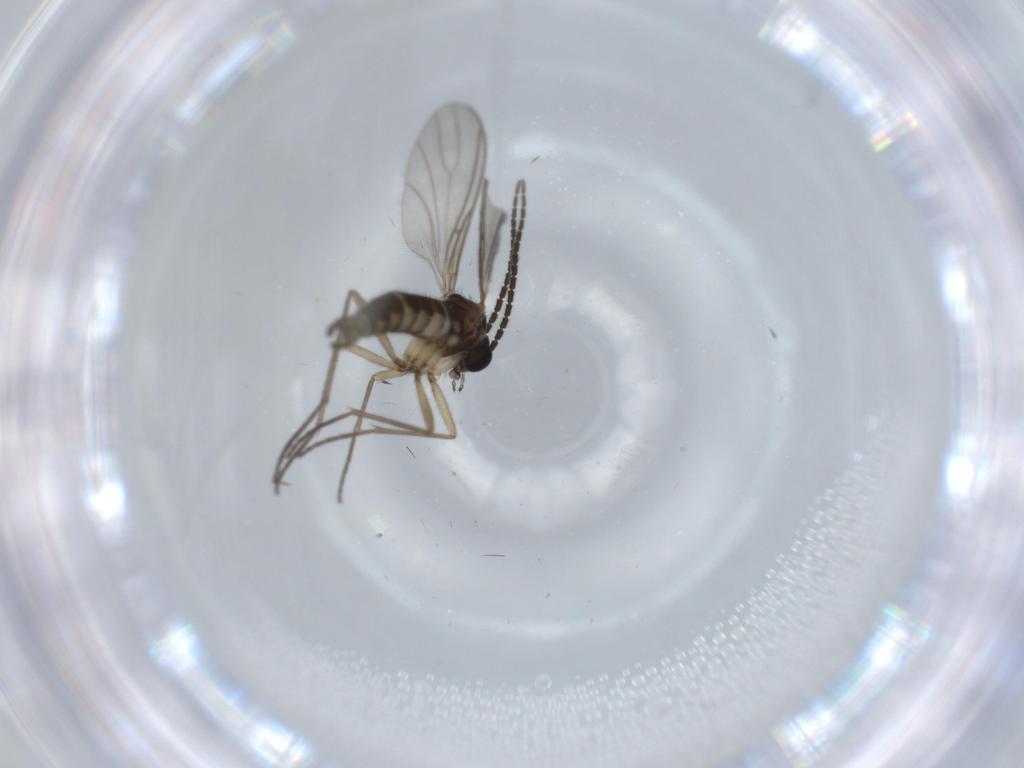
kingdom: Animalia
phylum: Arthropoda
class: Insecta
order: Diptera
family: Sciaridae
